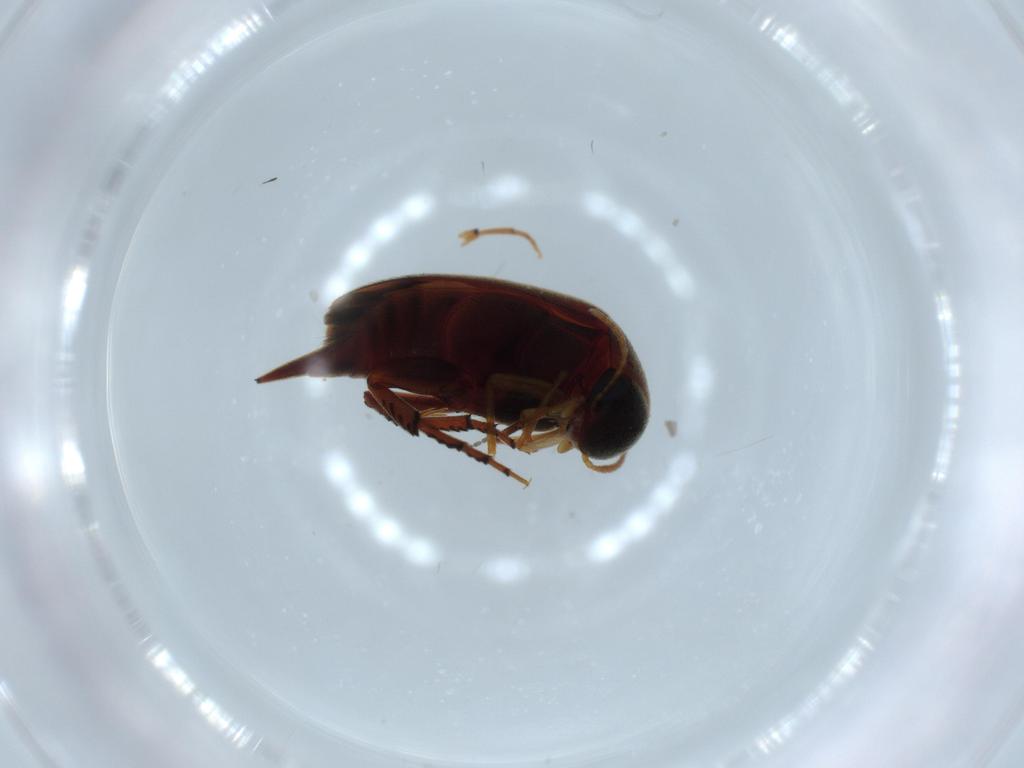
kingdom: Animalia
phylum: Arthropoda
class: Insecta
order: Coleoptera
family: Mordellidae
